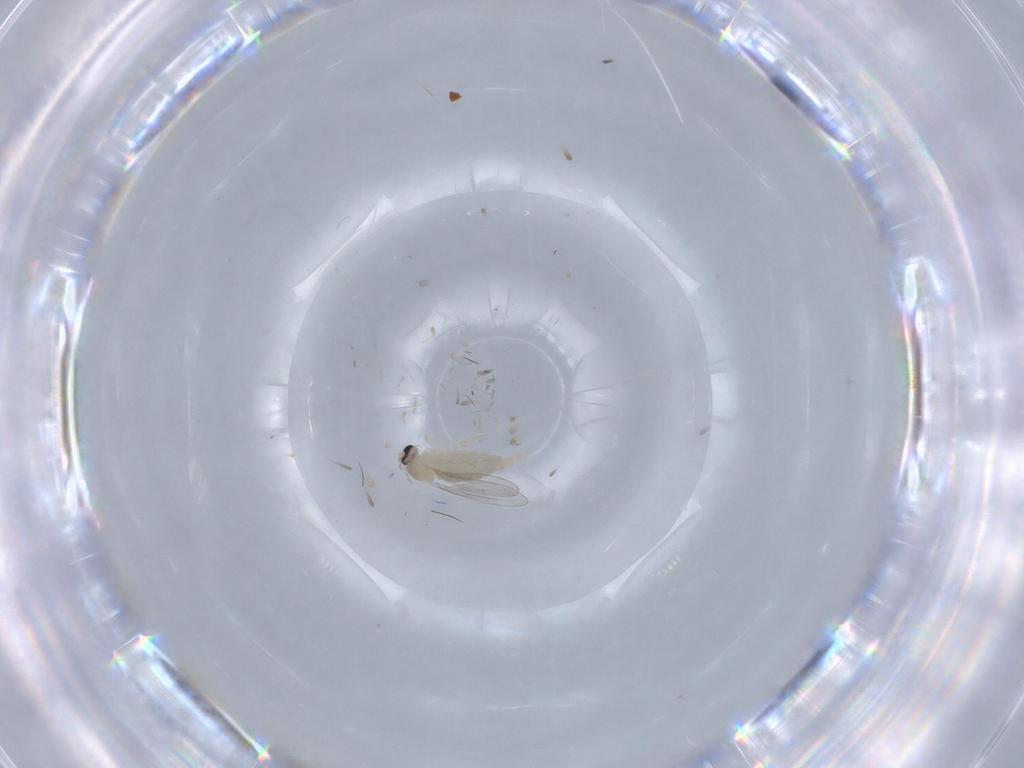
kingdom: Animalia
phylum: Arthropoda
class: Insecta
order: Diptera
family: Cecidomyiidae
